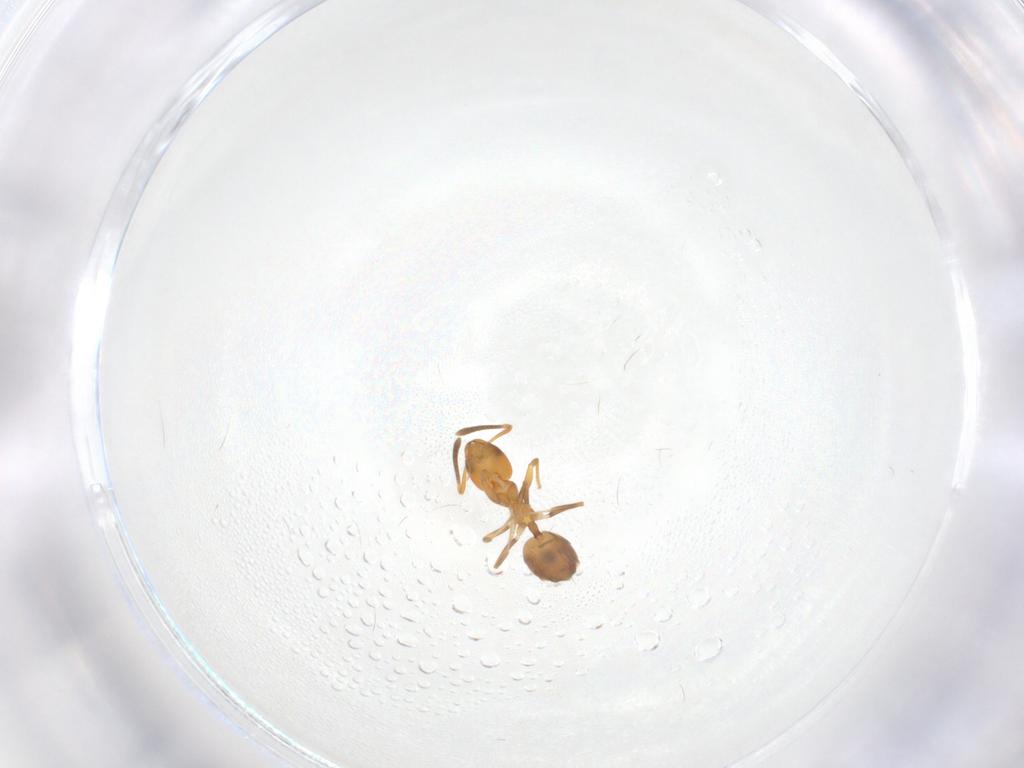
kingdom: Animalia
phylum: Arthropoda
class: Insecta
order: Hymenoptera
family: Formicidae
